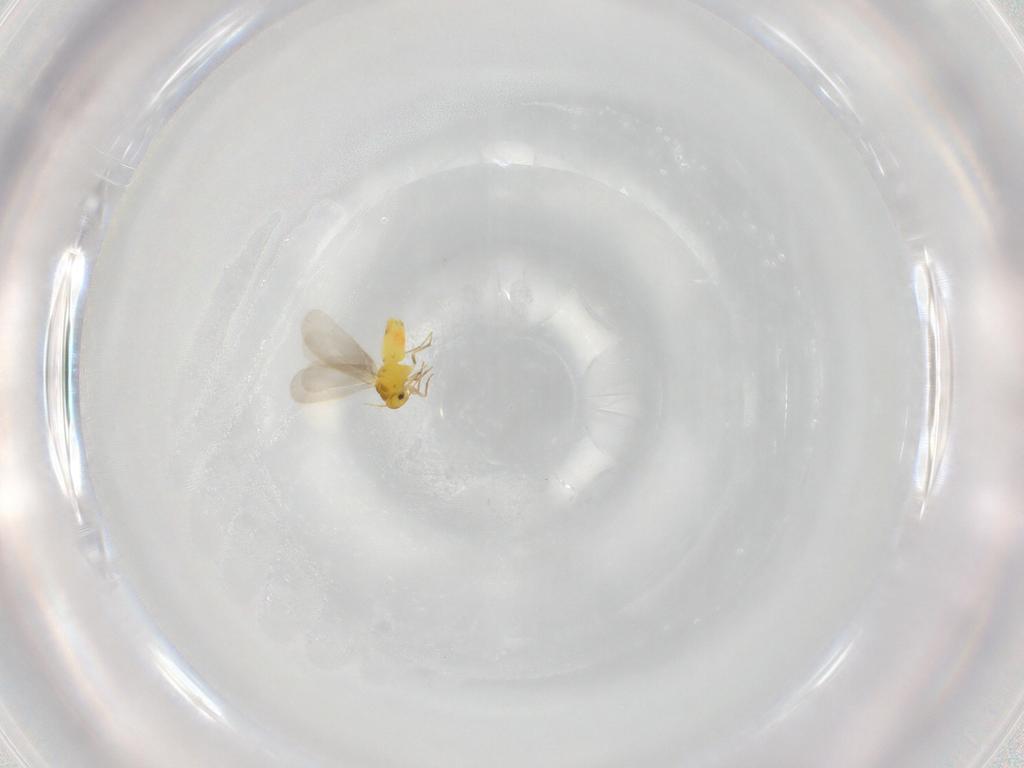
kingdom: Animalia
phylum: Arthropoda
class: Insecta
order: Hemiptera
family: Aleyrodidae
